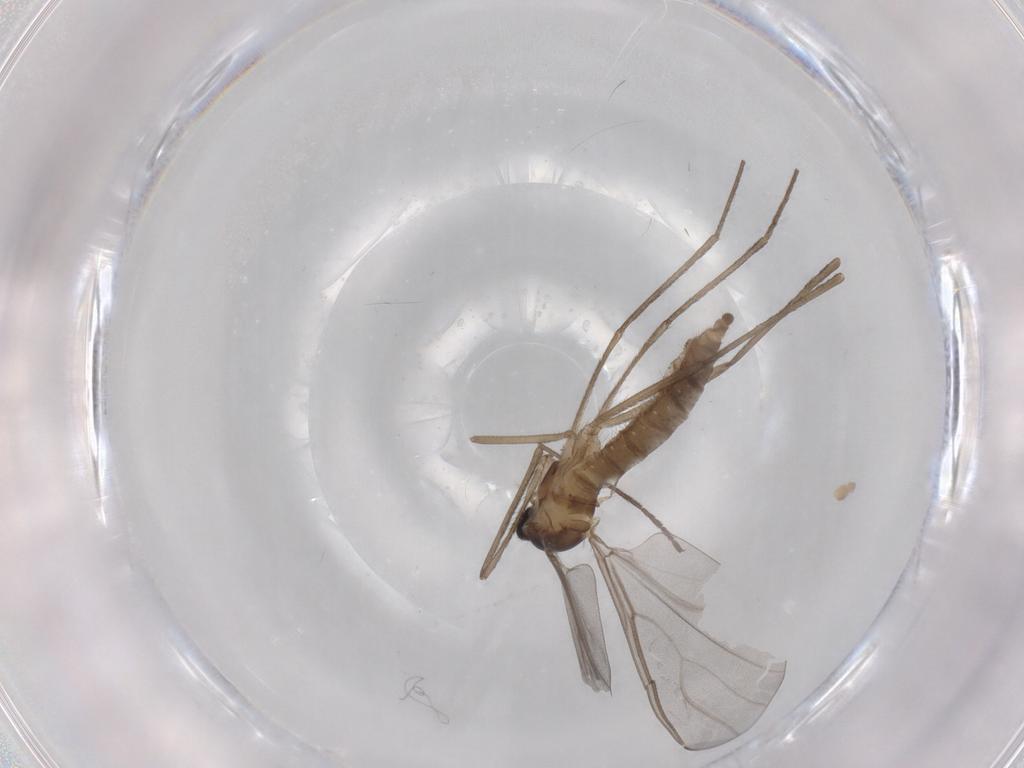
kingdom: Animalia
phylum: Arthropoda
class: Insecta
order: Diptera
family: Cecidomyiidae
